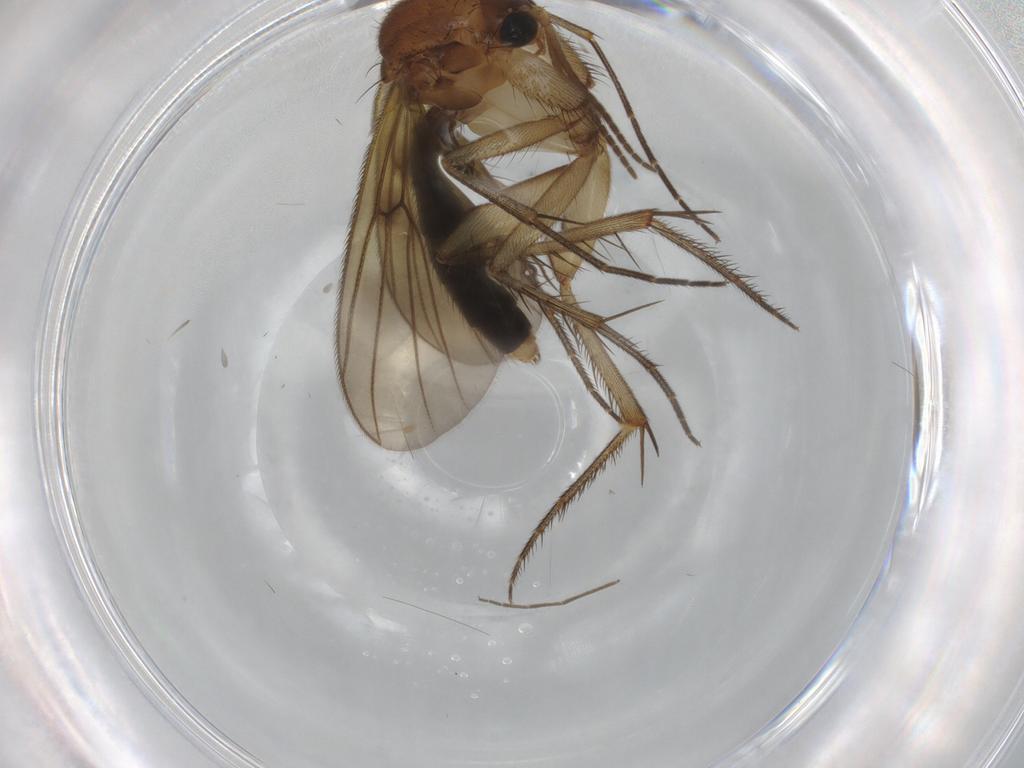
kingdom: Animalia
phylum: Arthropoda
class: Insecta
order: Diptera
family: Mycetophilidae
